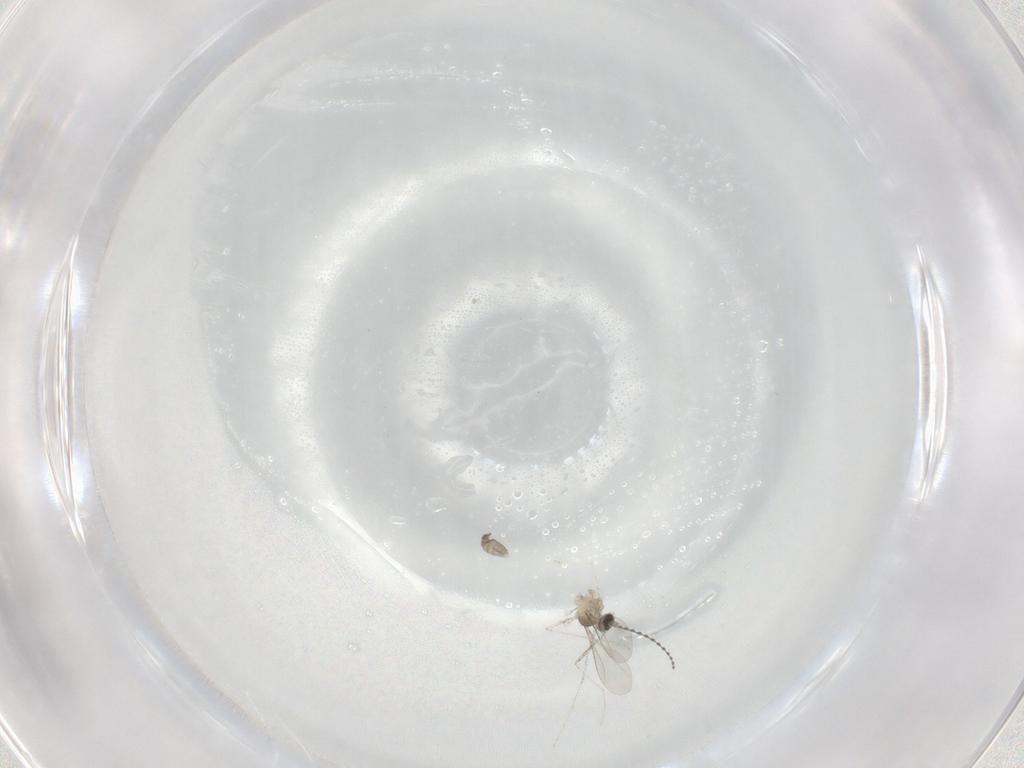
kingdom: Animalia
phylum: Arthropoda
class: Insecta
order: Diptera
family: Cecidomyiidae
